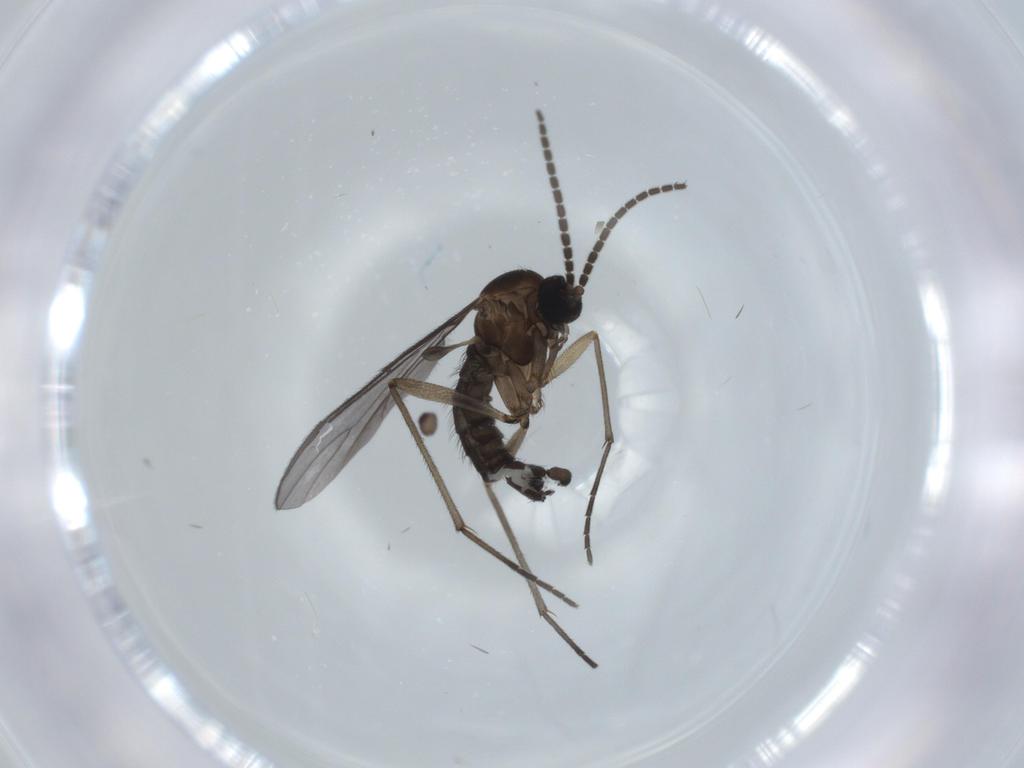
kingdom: Animalia
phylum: Arthropoda
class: Insecta
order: Diptera
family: Sciaridae
